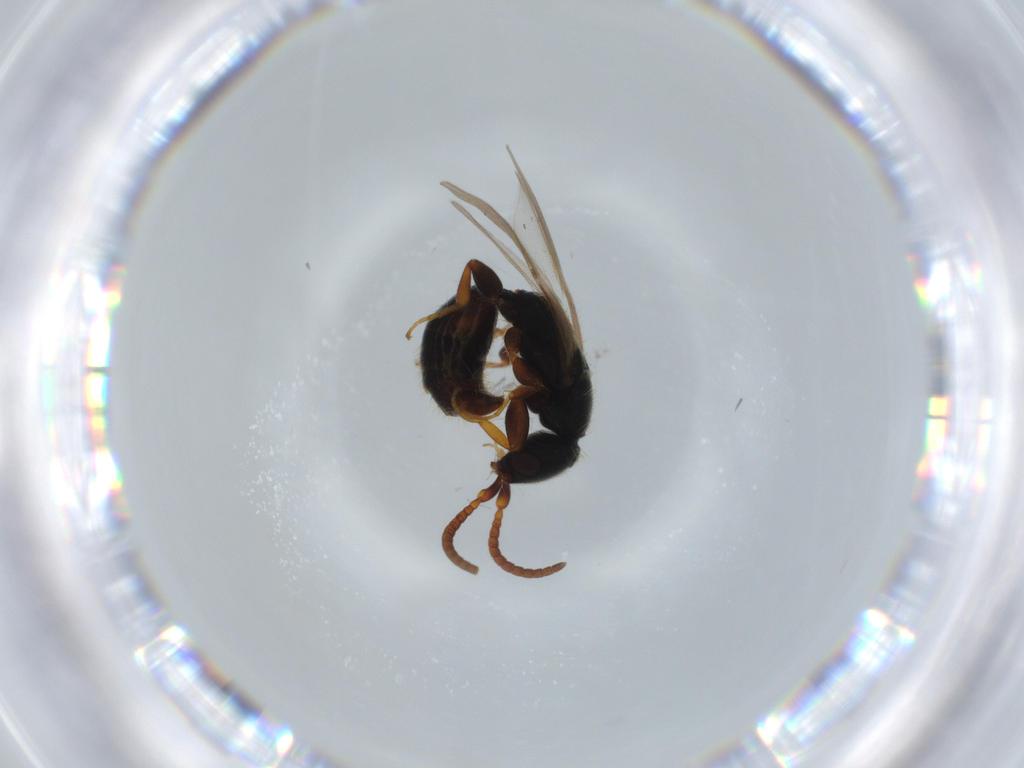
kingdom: Animalia
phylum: Arthropoda
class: Insecta
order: Hymenoptera
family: Bethylidae
